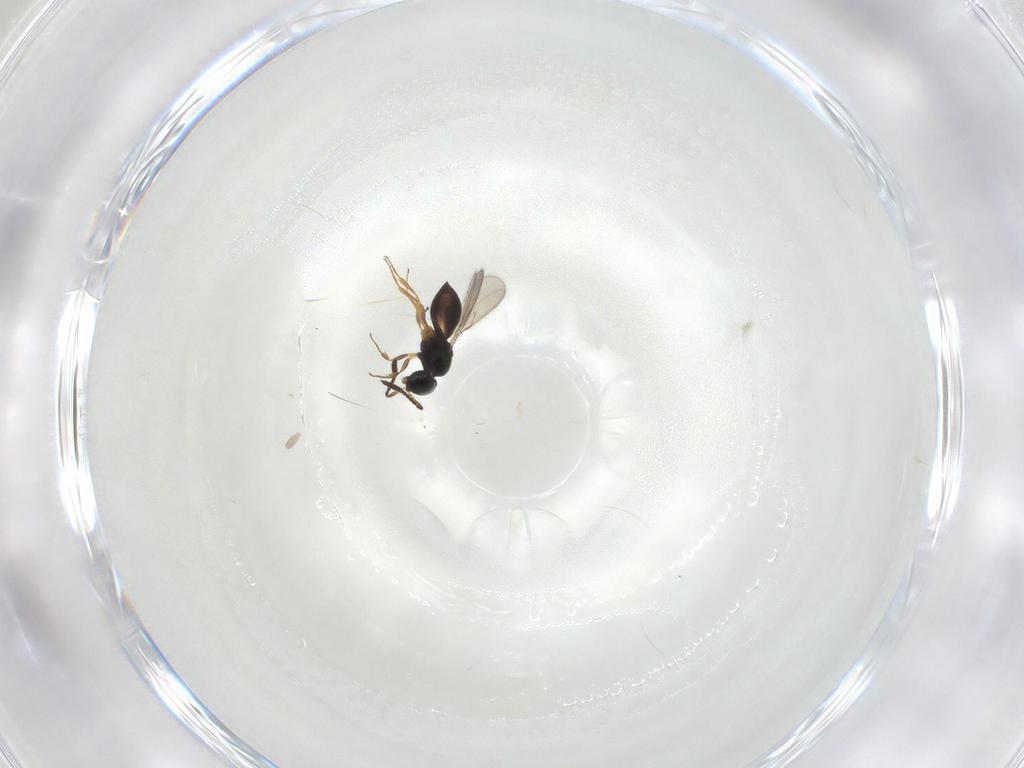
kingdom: Animalia
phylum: Arthropoda
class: Insecta
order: Hymenoptera
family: Scelionidae
